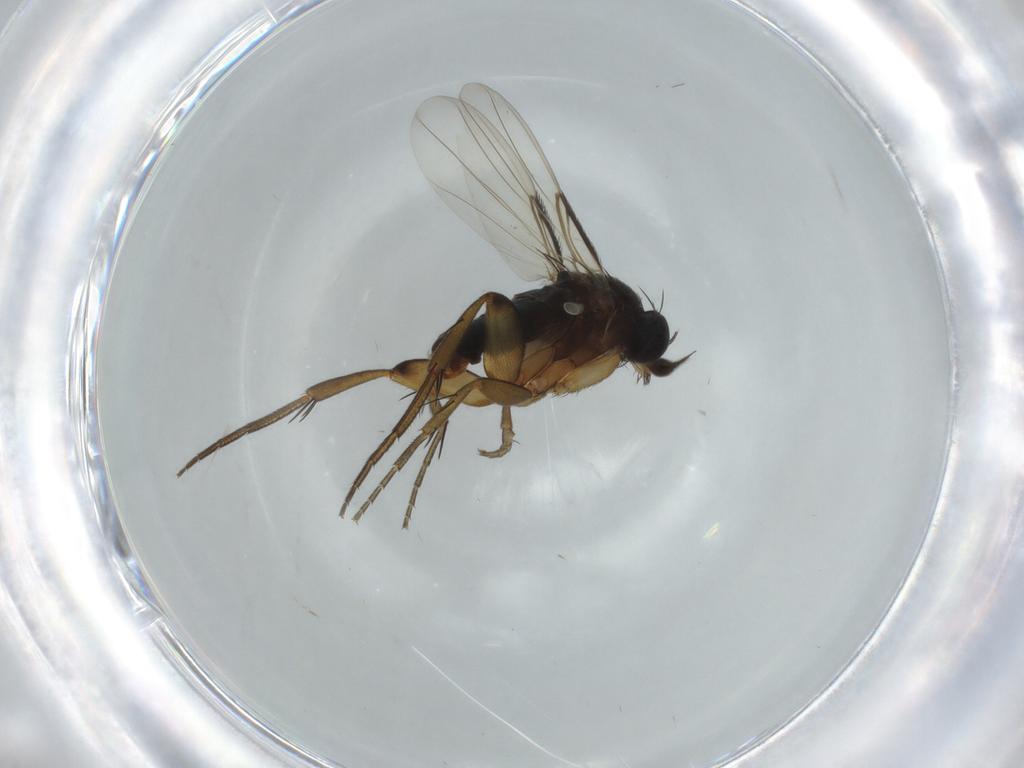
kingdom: Animalia
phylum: Arthropoda
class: Insecta
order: Diptera
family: Phoridae
